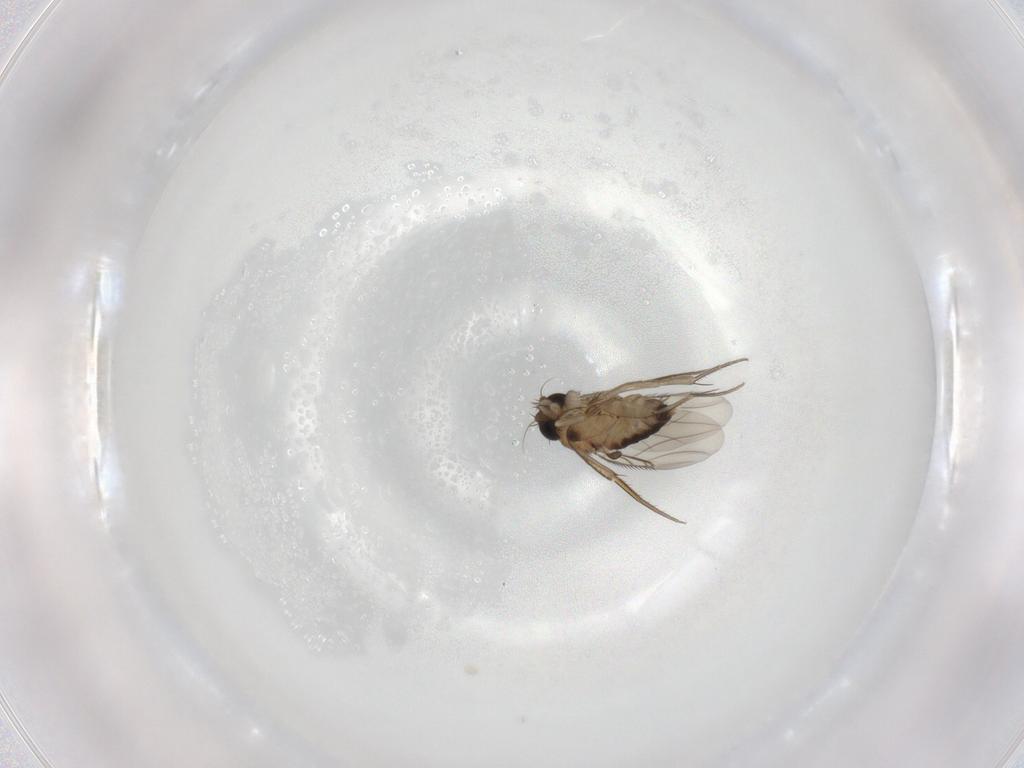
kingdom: Animalia
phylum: Arthropoda
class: Insecta
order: Diptera
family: Phoridae
